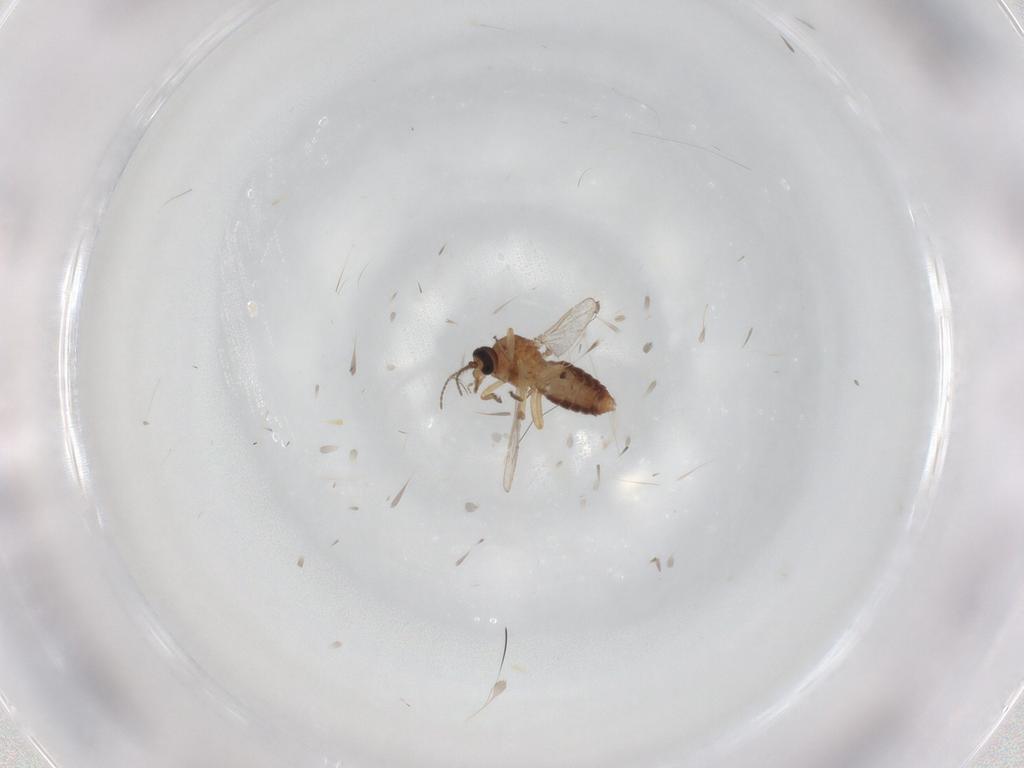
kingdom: Animalia
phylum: Arthropoda
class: Insecta
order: Diptera
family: Ceratopogonidae
